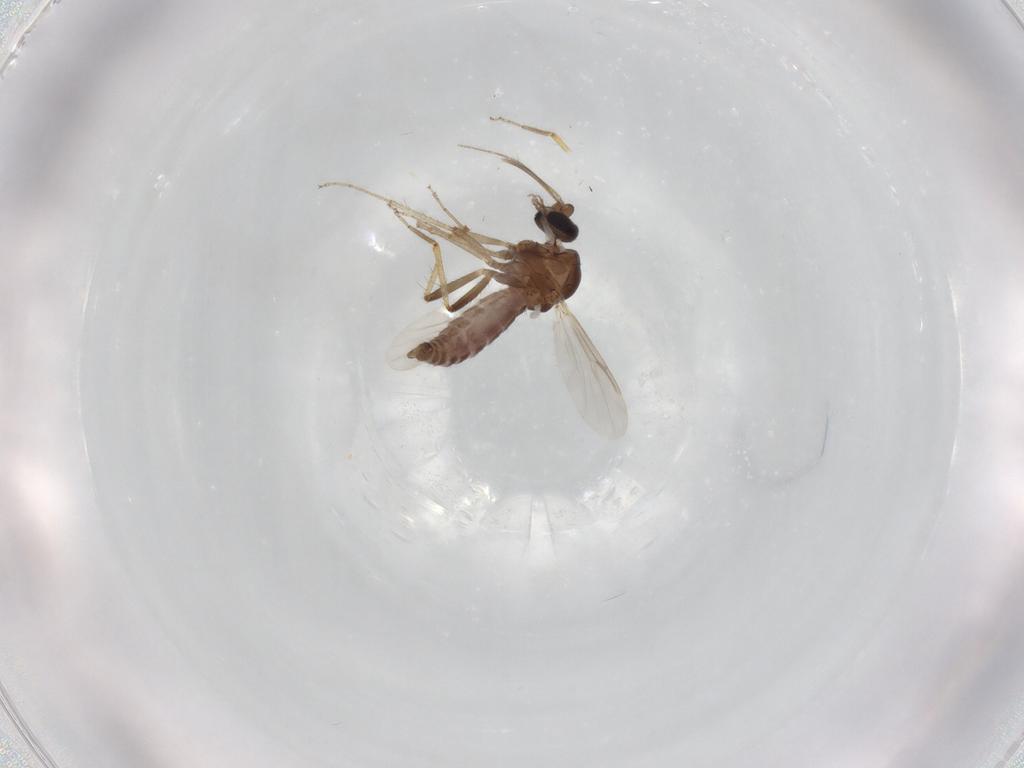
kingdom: Animalia
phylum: Arthropoda
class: Insecta
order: Diptera
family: Ceratopogonidae
